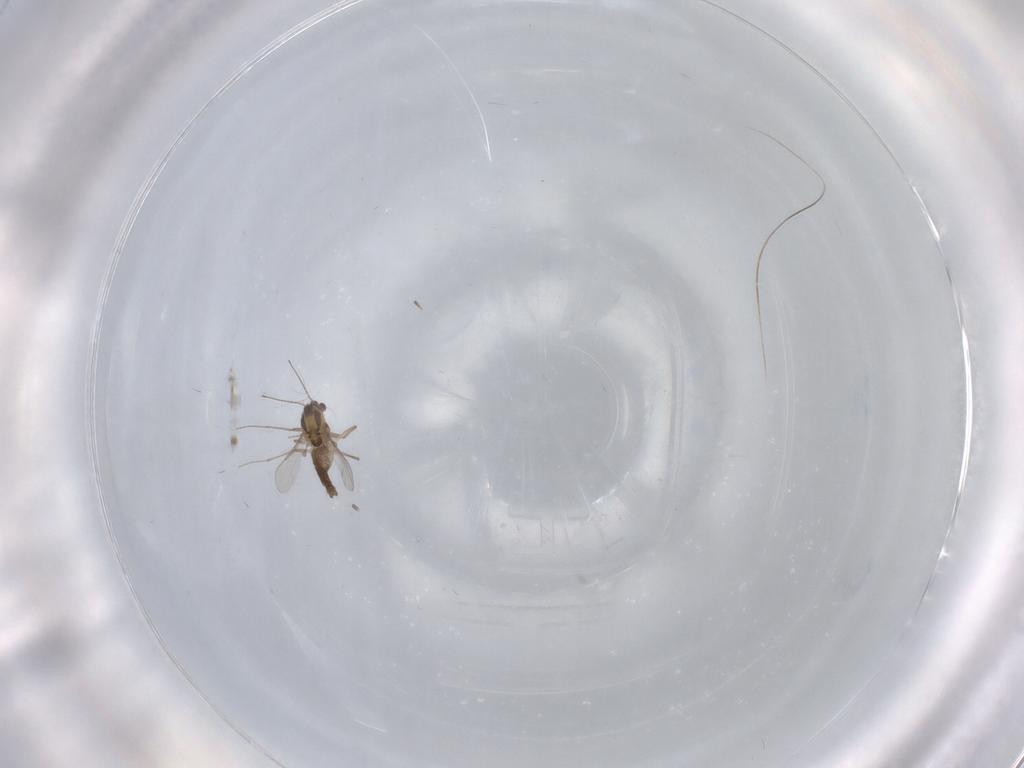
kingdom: Animalia
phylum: Arthropoda
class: Insecta
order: Diptera
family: Chironomidae
